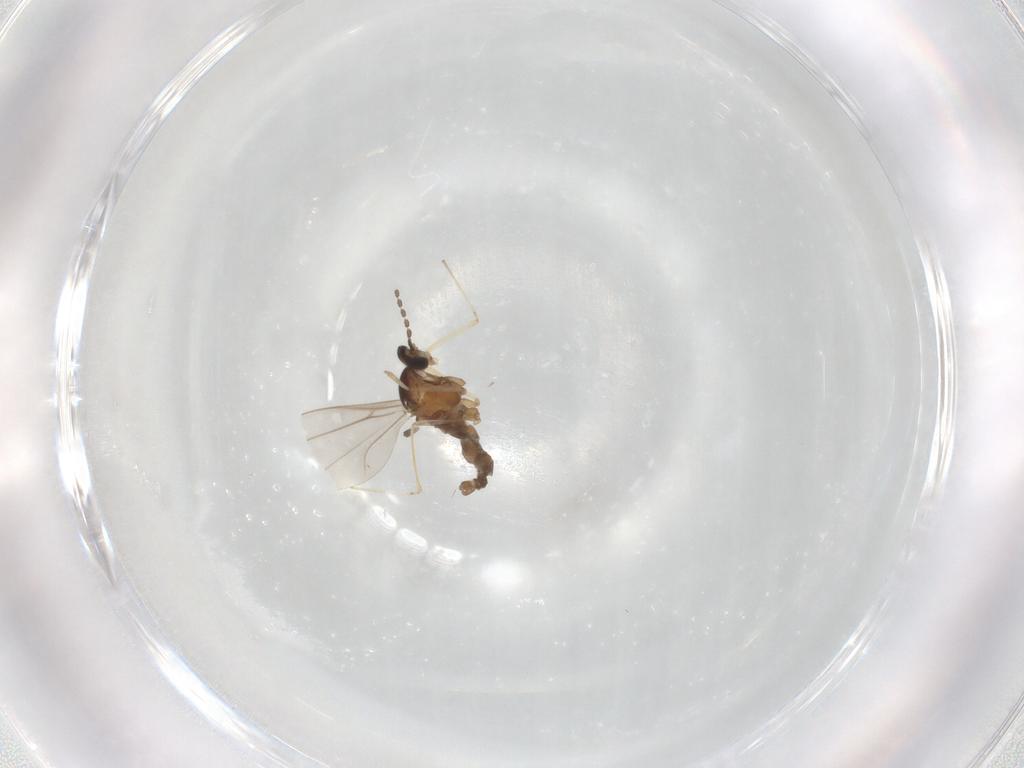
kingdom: Animalia
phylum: Arthropoda
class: Insecta
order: Diptera
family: Cecidomyiidae
